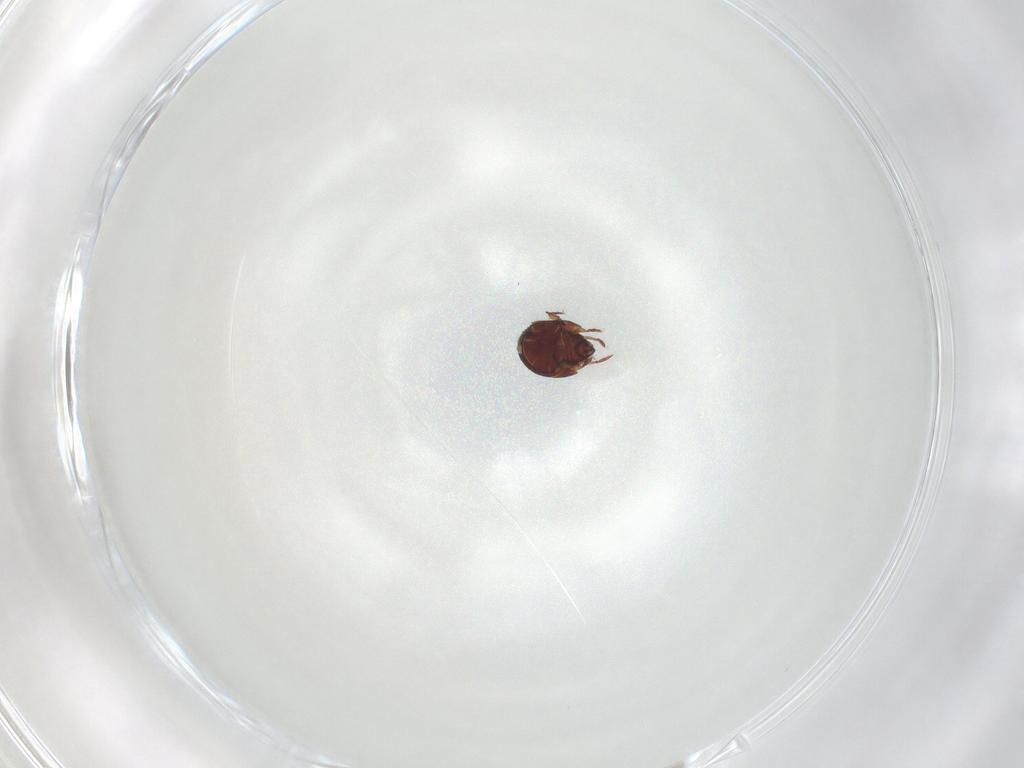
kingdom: Animalia
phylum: Arthropoda
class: Arachnida
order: Sarcoptiformes
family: Humerobatidae
